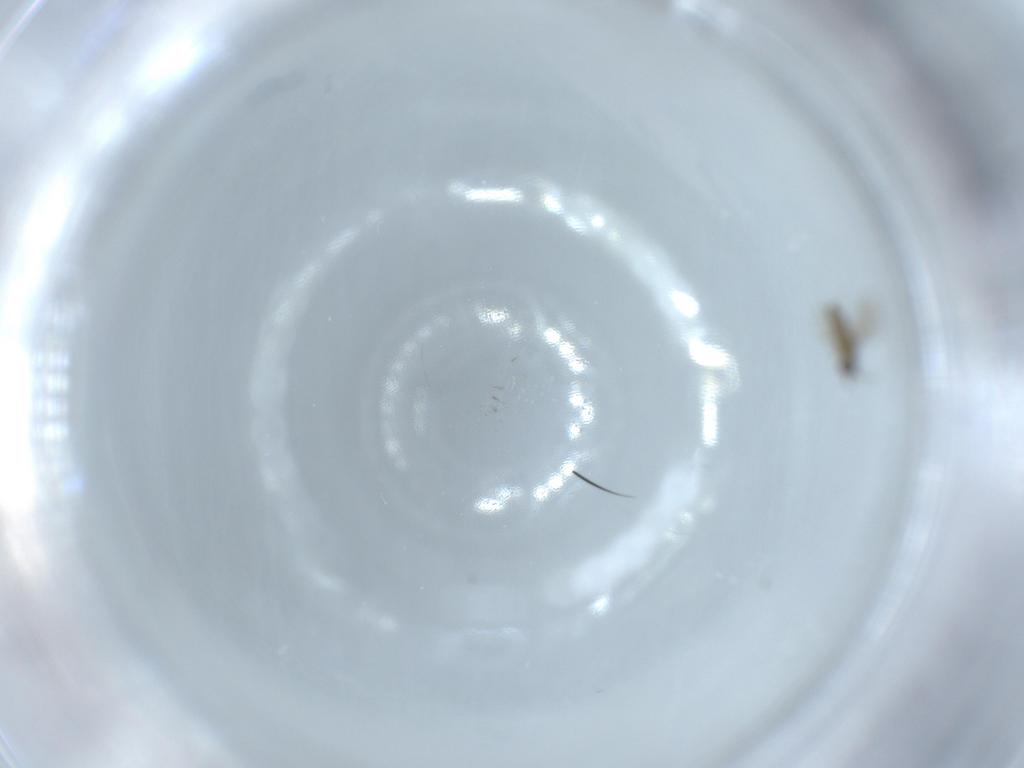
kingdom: Animalia
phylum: Arthropoda
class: Insecta
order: Diptera
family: Cecidomyiidae
